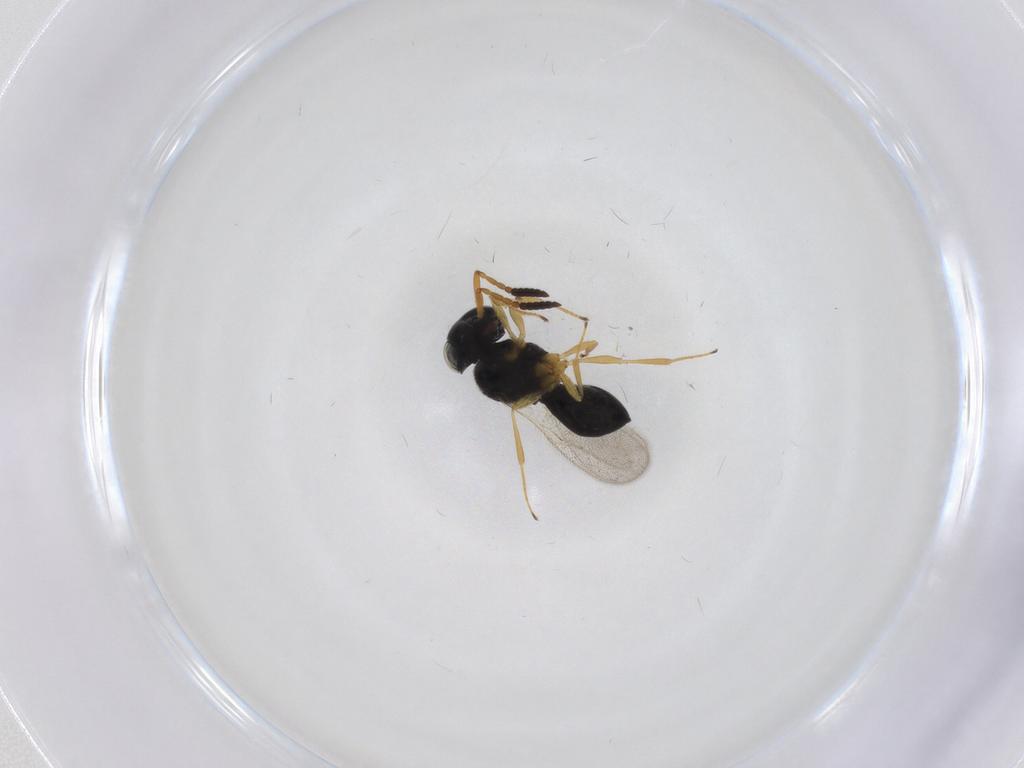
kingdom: Animalia
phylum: Arthropoda
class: Insecta
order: Hymenoptera
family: Scelionidae
